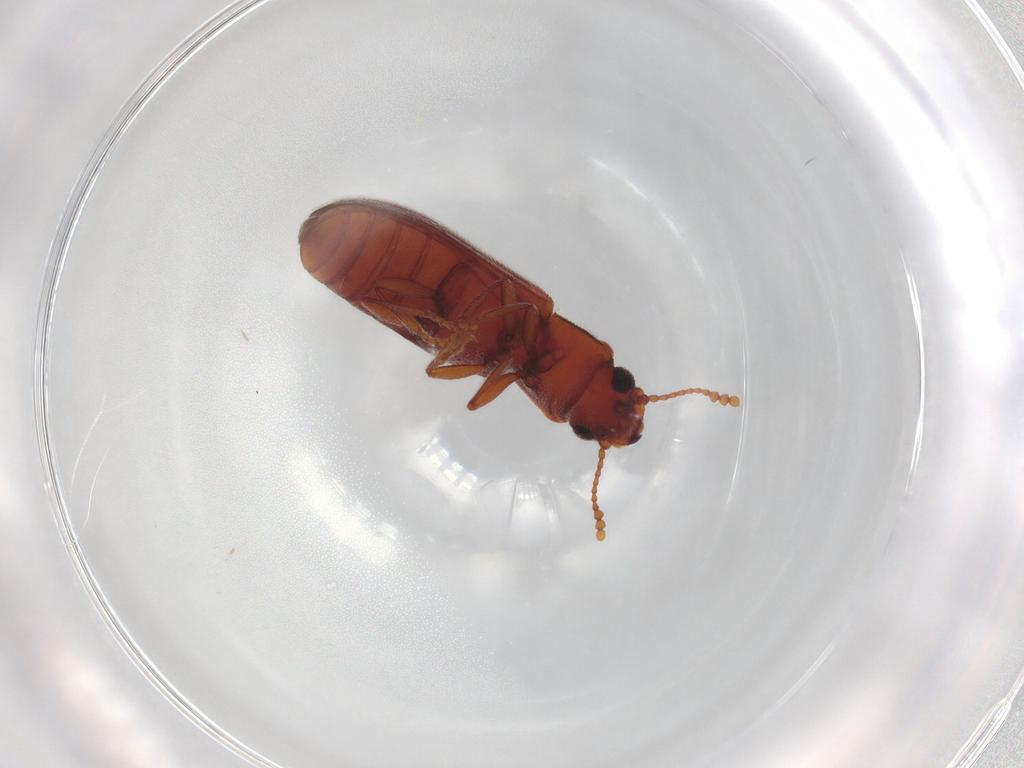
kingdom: Animalia
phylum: Arthropoda
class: Insecta
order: Coleoptera
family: Cryptophagidae
